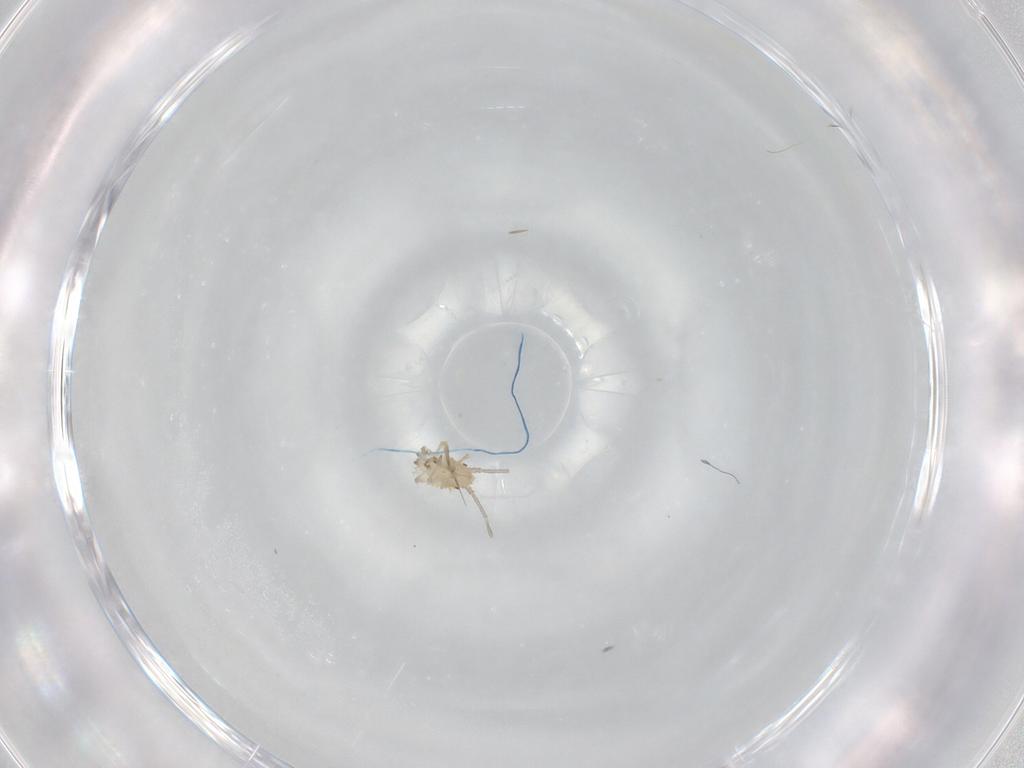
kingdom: Animalia
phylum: Arthropoda
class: Insecta
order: Hemiptera
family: Tingidae
